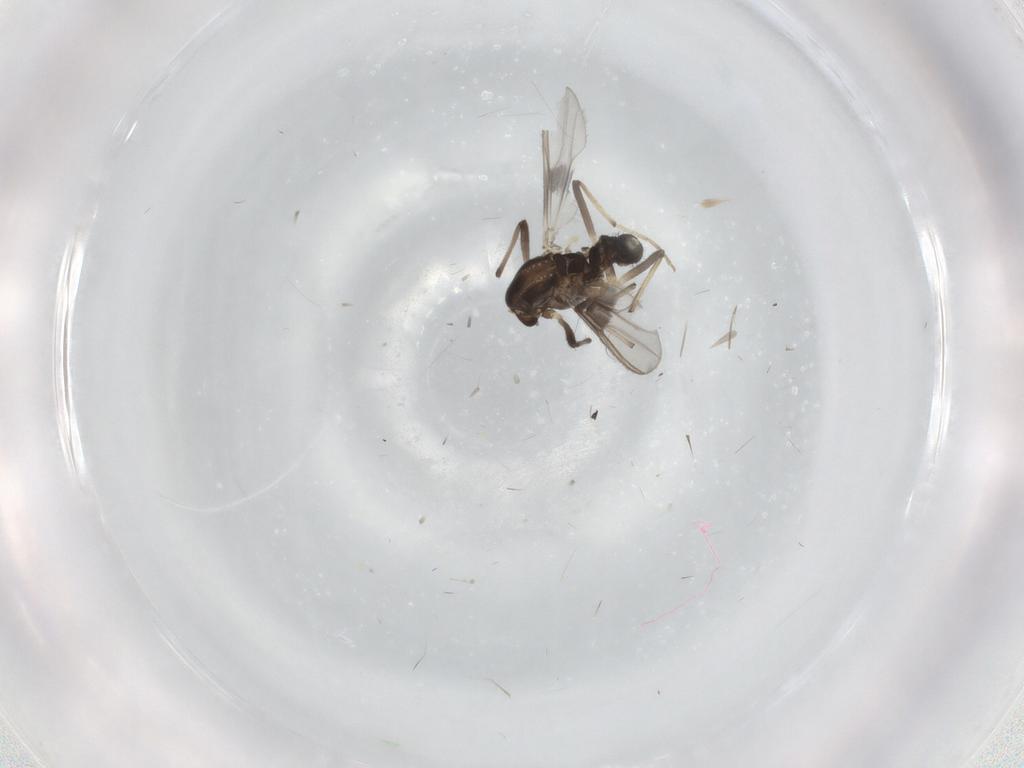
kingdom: Animalia
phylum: Arthropoda
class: Insecta
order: Diptera
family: Chironomidae
